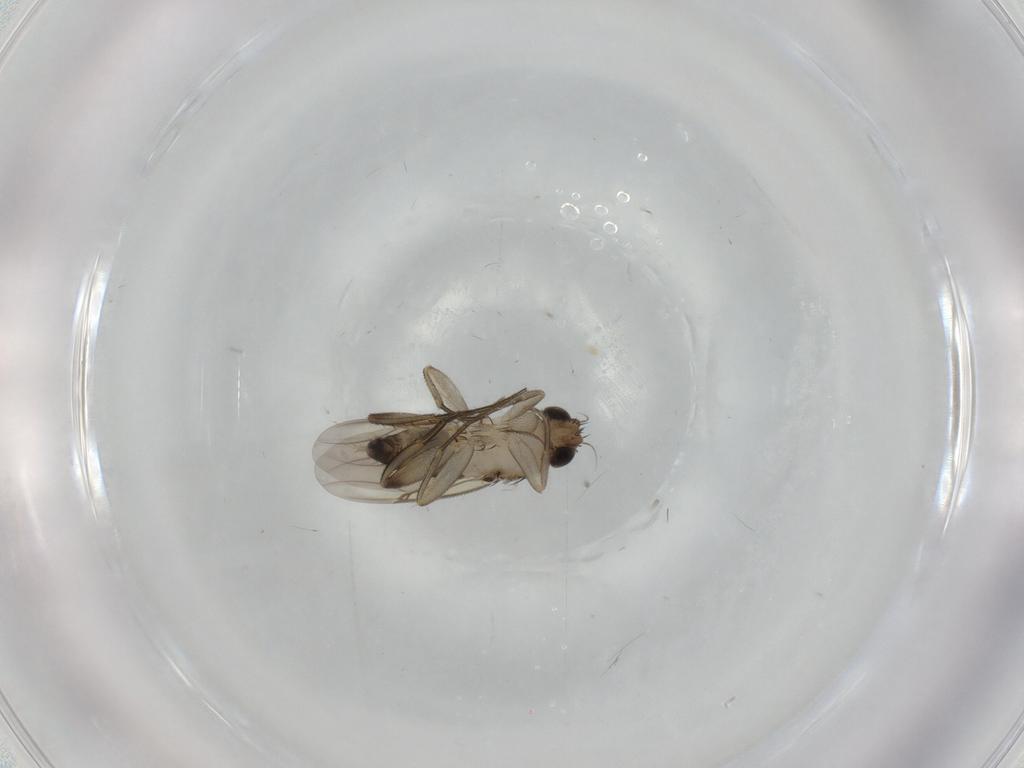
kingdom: Animalia
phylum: Arthropoda
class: Insecta
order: Diptera
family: Phoridae
